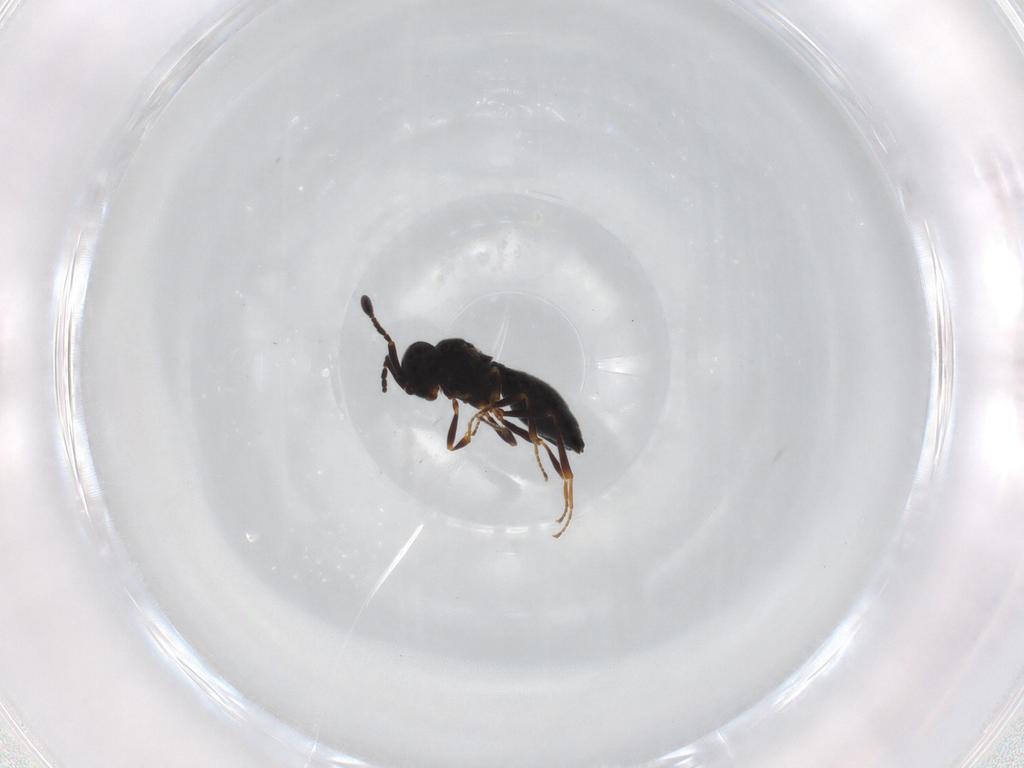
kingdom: Animalia
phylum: Arthropoda
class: Insecta
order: Hymenoptera
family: Scelionidae
